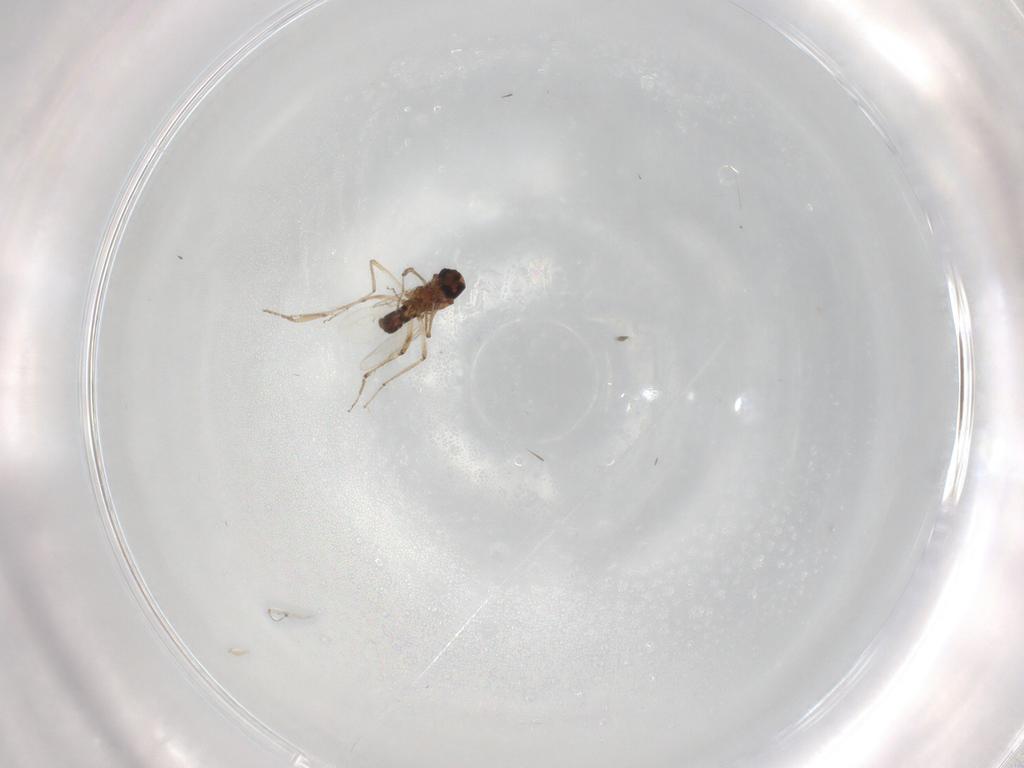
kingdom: Animalia
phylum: Arthropoda
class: Insecta
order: Diptera
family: Ceratopogonidae
